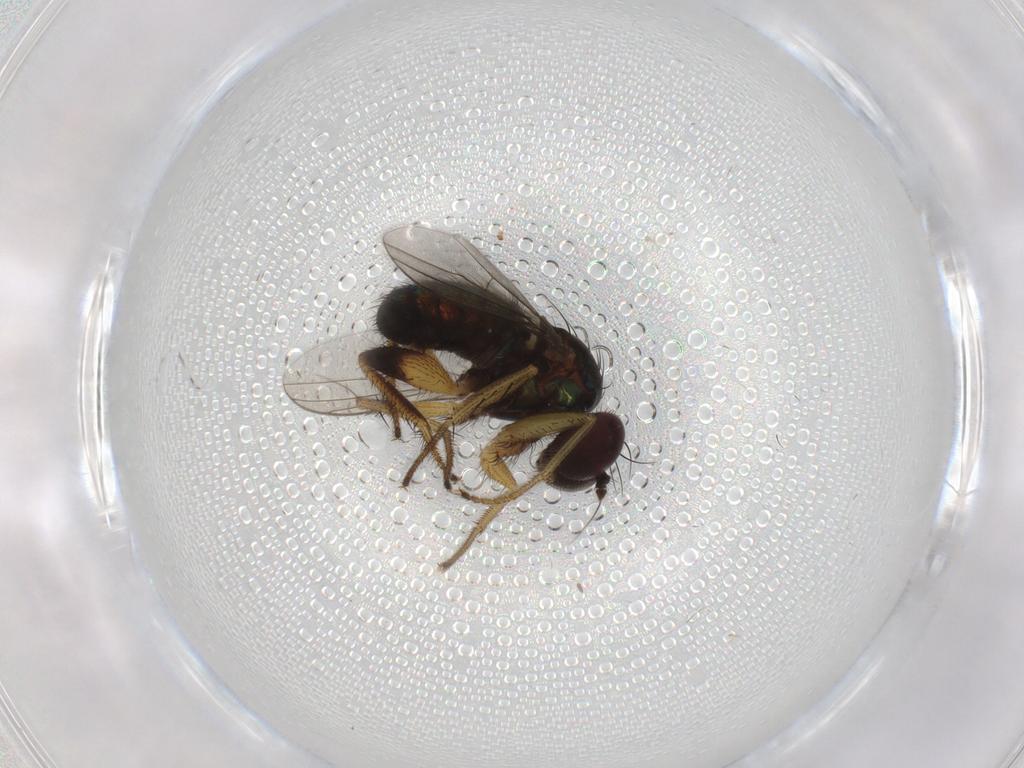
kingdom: Animalia
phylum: Arthropoda
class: Insecta
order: Diptera
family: Dolichopodidae
